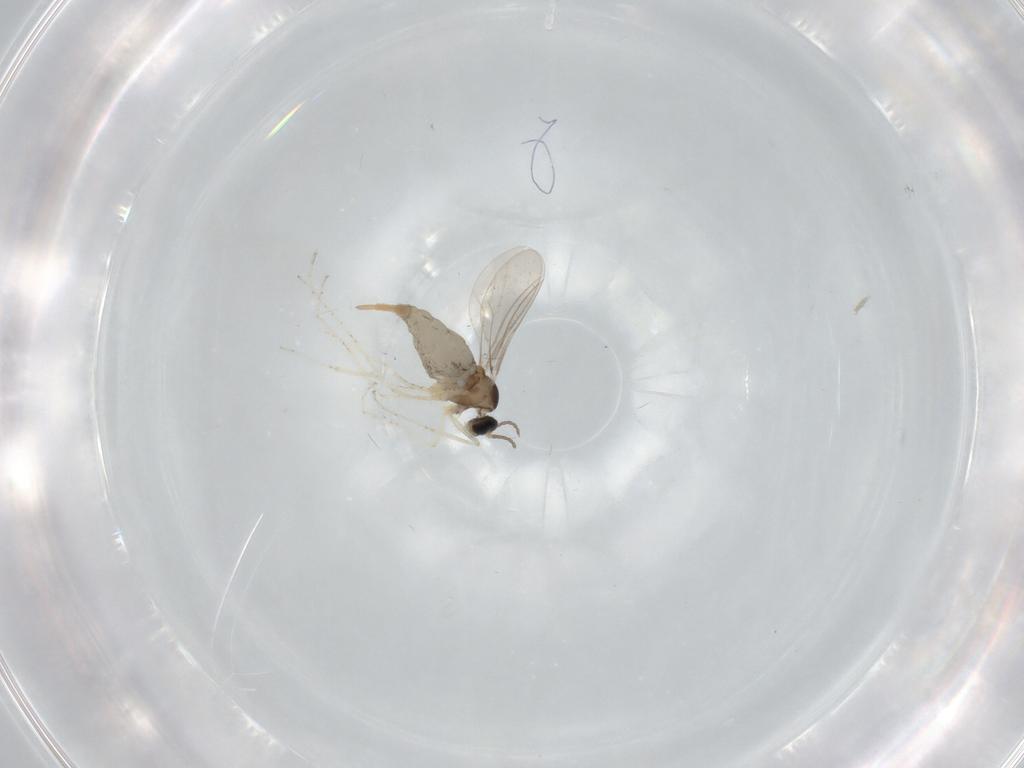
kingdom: Animalia
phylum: Arthropoda
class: Insecta
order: Diptera
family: Cecidomyiidae
